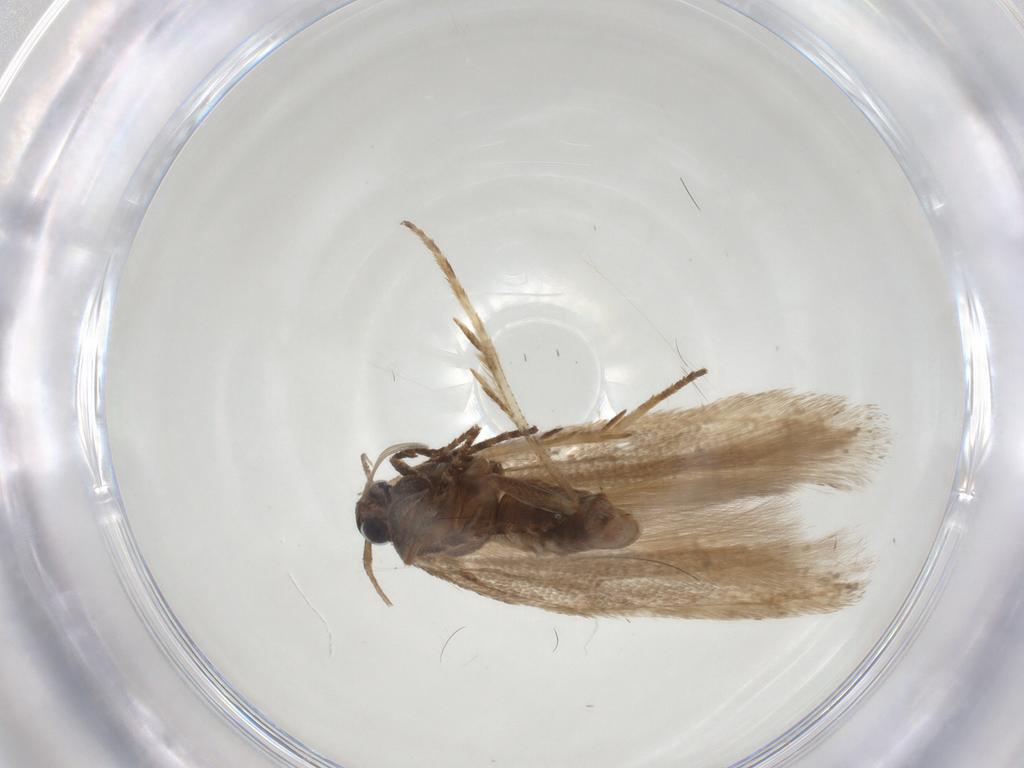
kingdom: Animalia
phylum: Arthropoda
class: Insecta
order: Lepidoptera
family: Gelechiidae
